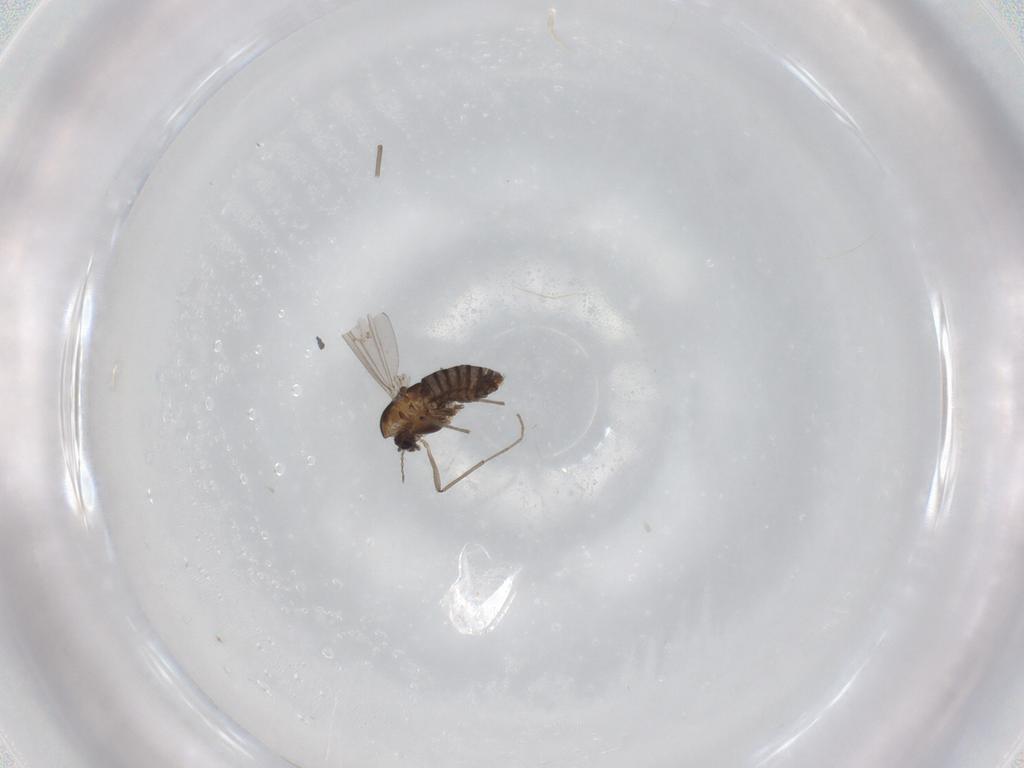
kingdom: Animalia
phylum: Arthropoda
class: Insecta
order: Diptera
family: Chironomidae
